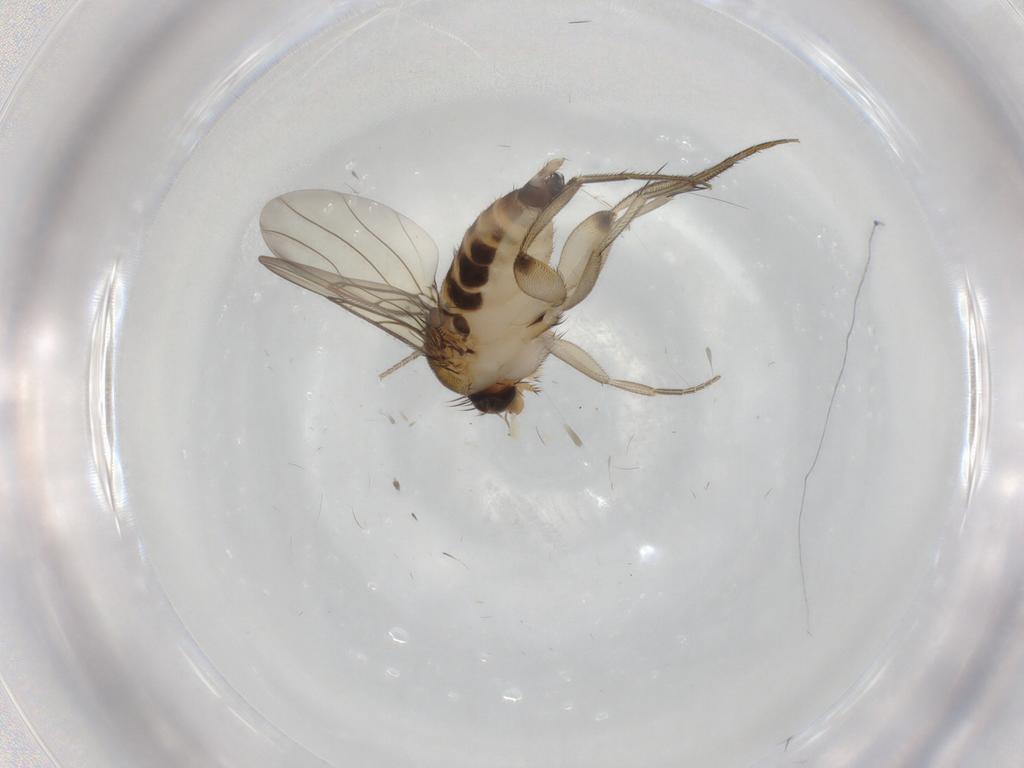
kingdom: Animalia
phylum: Arthropoda
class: Insecta
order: Diptera
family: Phoridae
